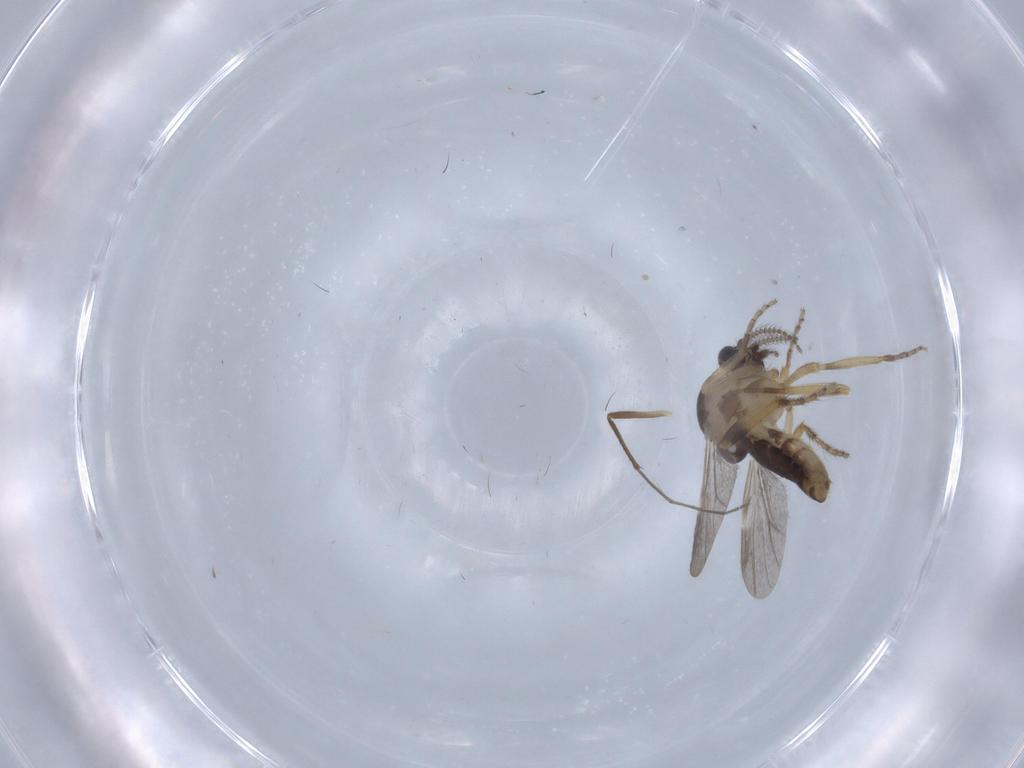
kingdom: Animalia
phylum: Arthropoda
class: Insecta
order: Diptera
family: Ceratopogonidae
